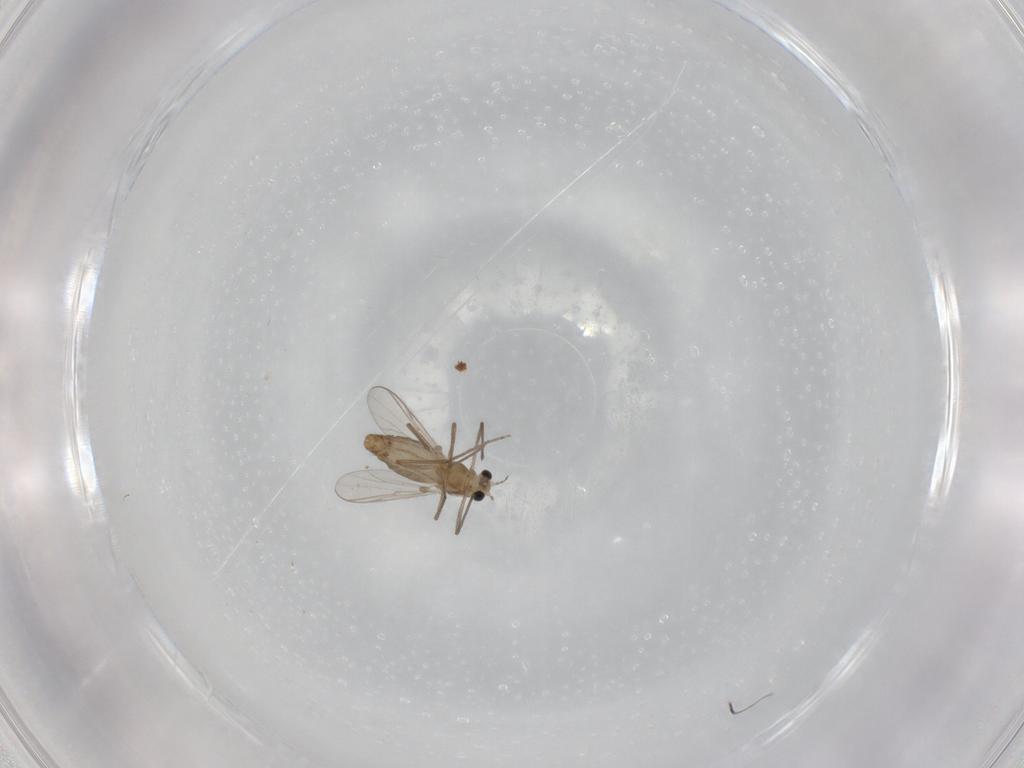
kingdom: Animalia
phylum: Arthropoda
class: Insecta
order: Diptera
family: Chironomidae
